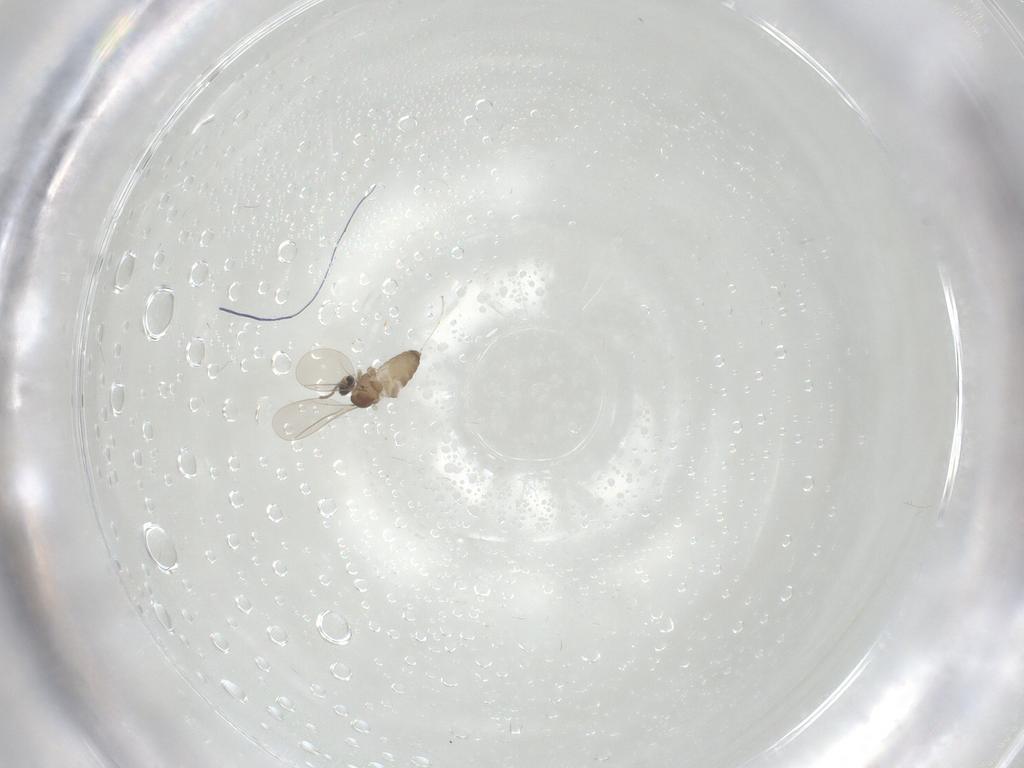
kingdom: Animalia
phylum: Arthropoda
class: Insecta
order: Diptera
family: Cecidomyiidae
